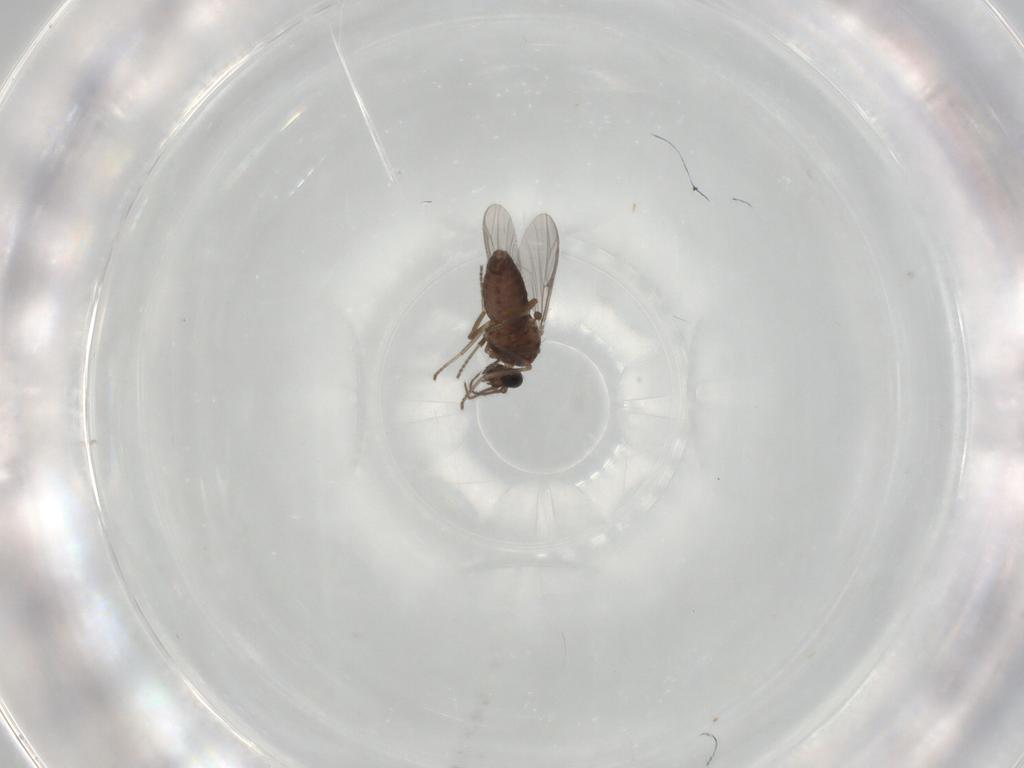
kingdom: Animalia
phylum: Arthropoda
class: Insecta
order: Diptera
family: Ceratopogonidae
